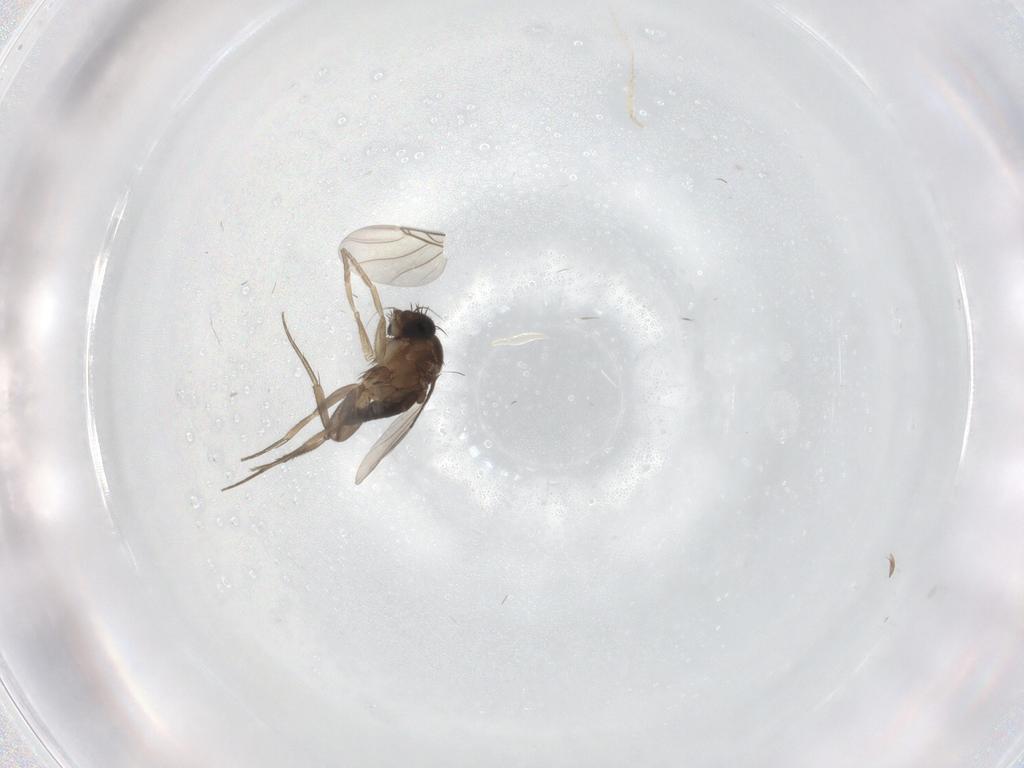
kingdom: Animalia
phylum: Arthropoda
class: Insecta
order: Diptera
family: Phoridae
